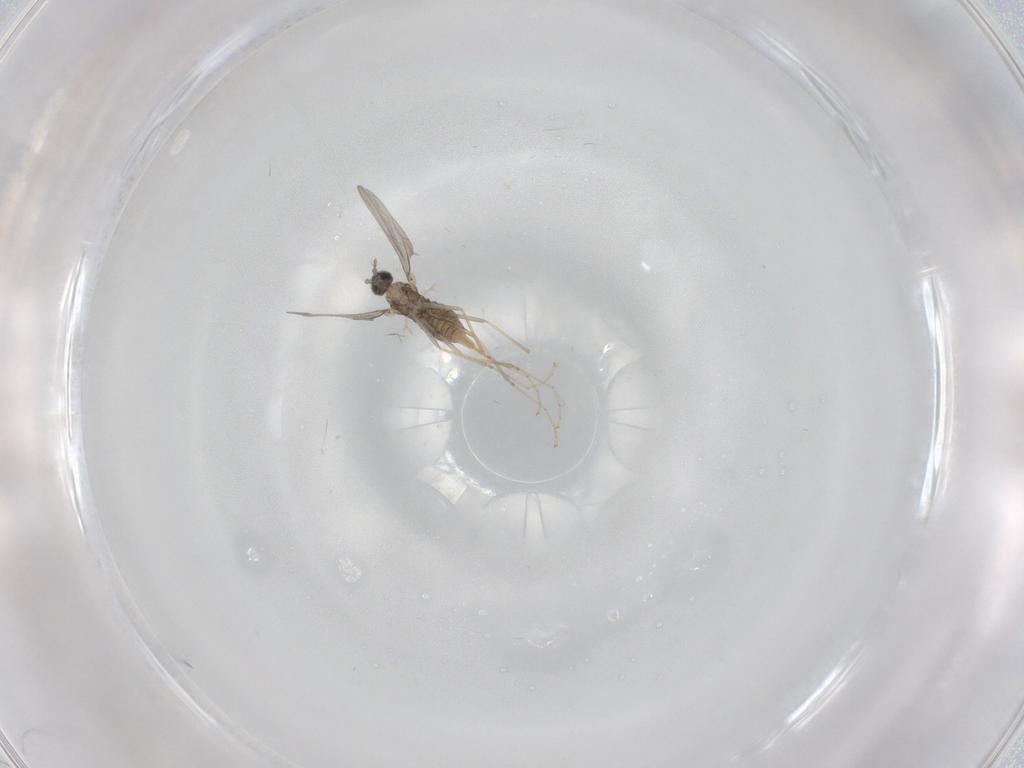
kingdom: Animalia
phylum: Arthropoda
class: Insecta
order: Diptera
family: Cecidomyiidae
